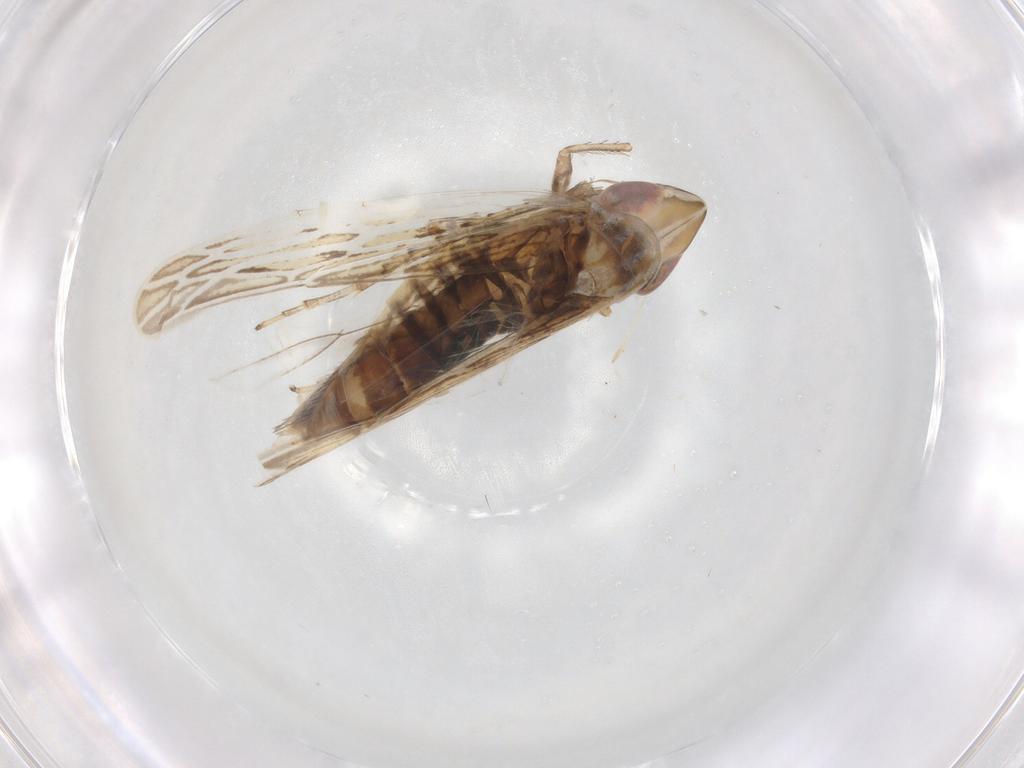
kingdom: Animalia
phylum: Arthropoda
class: Insecta
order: Hemiptera
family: Cicadellidae
